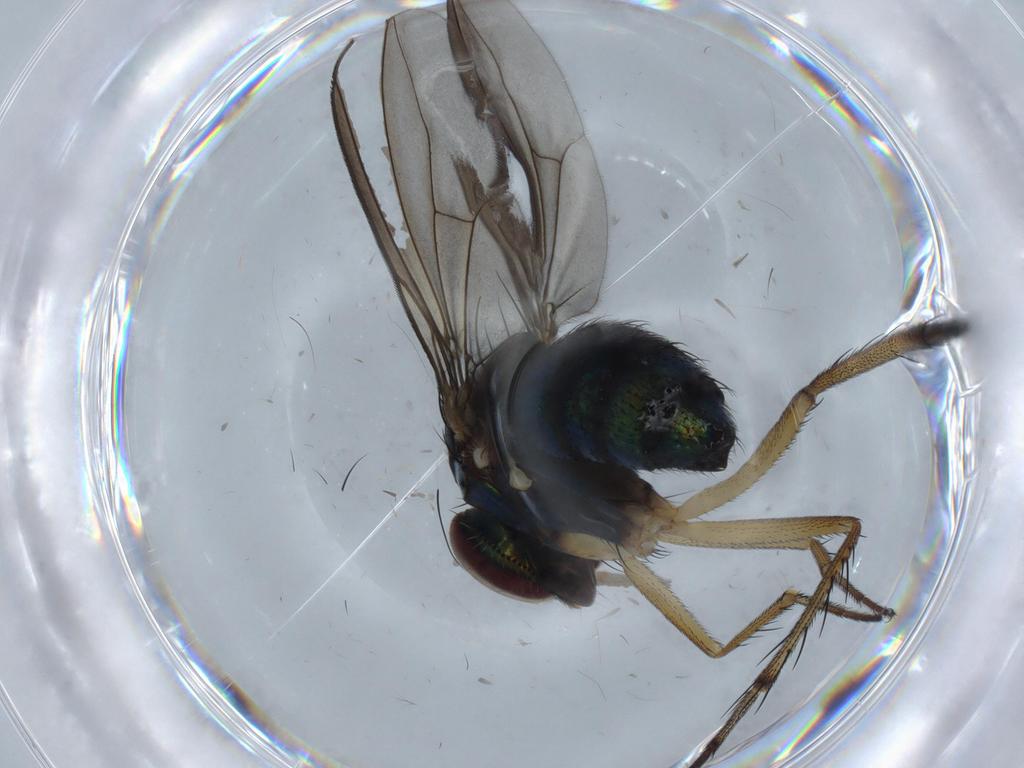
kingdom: Animalia
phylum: Arthropoda
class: Insecta
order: Diptera
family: Dolichopodidae
